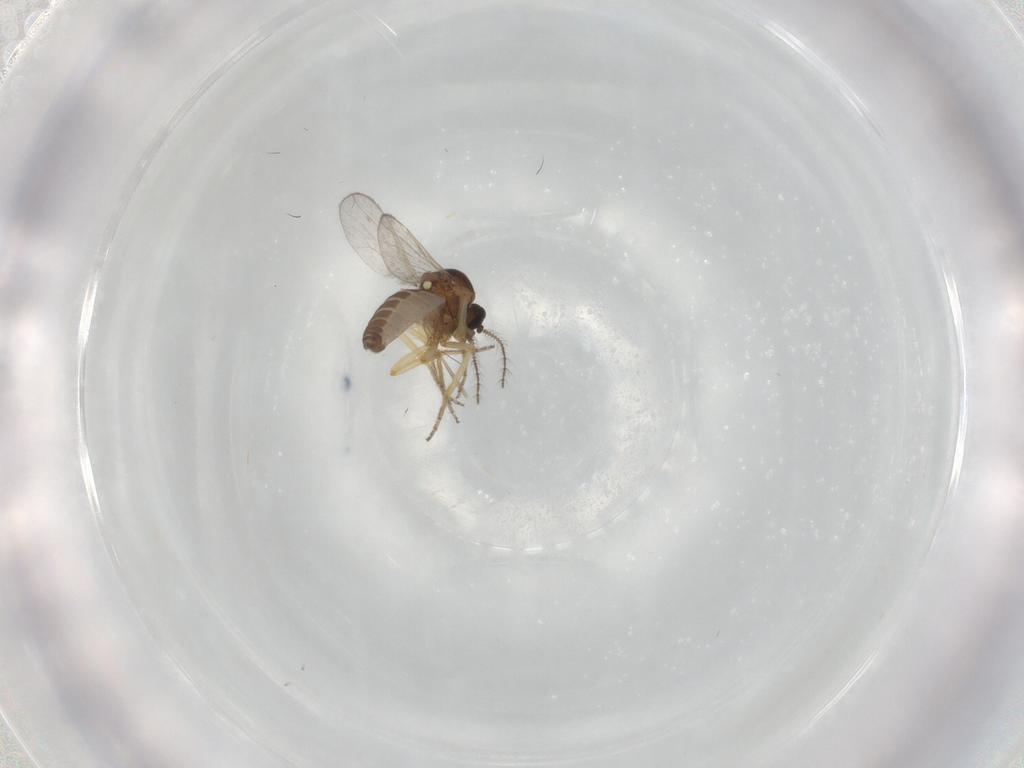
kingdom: Animalia
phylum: Arthropoda
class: Insecta
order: Diptera
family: Ceratopogonidae
